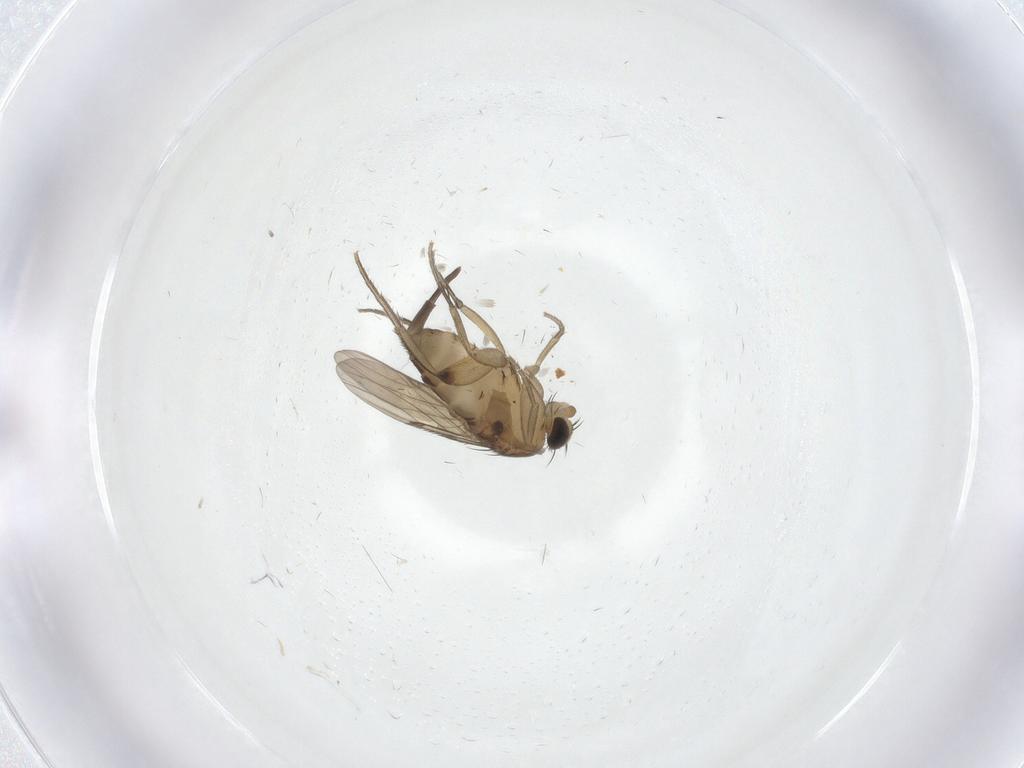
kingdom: Animalia
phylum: Arthropoda
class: Insecta
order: Diptera
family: Phoridae
